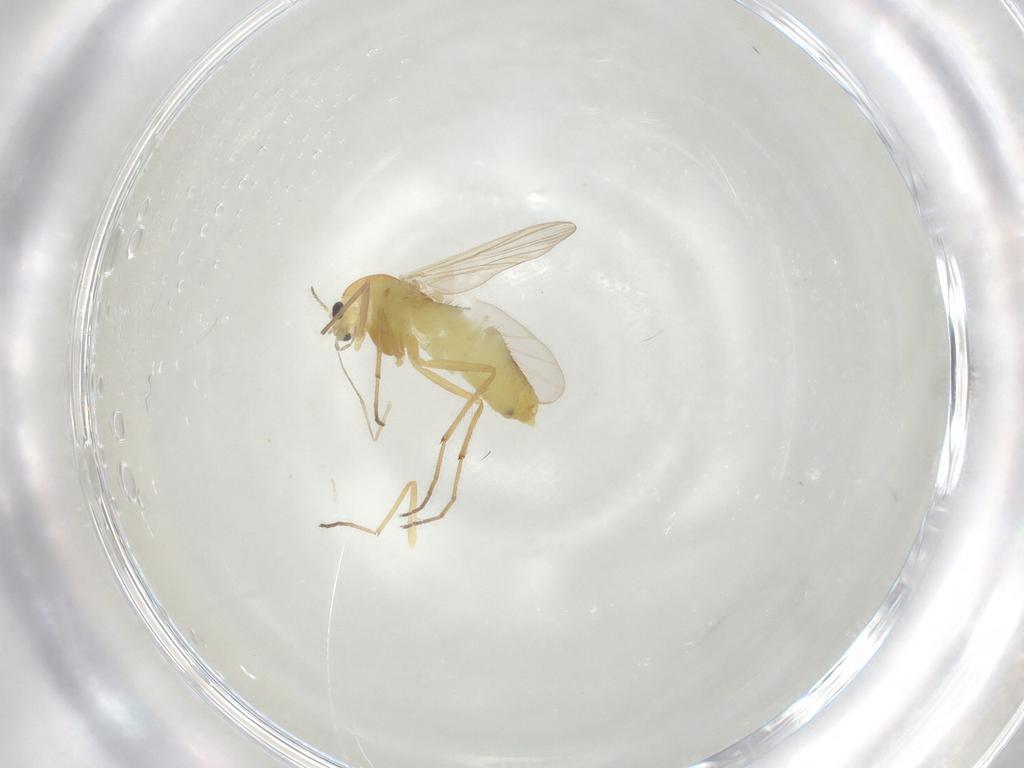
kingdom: Animalia
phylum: Arthropoda
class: Insecta
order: Diptera
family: Chironomidae
